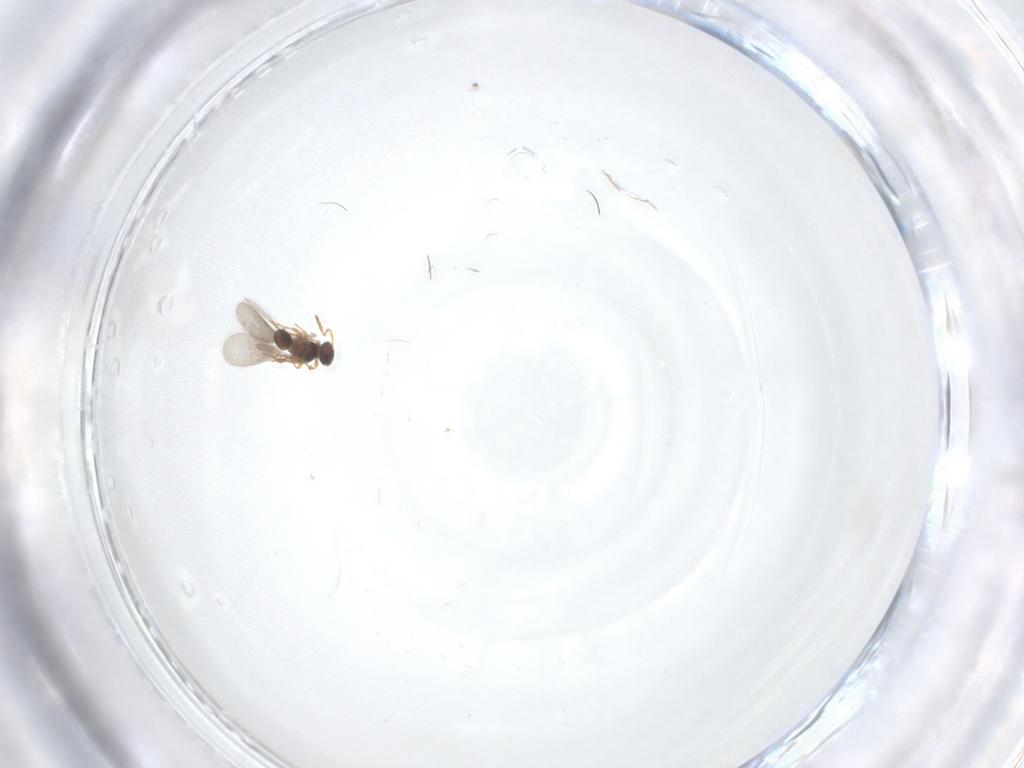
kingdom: Animalia
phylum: Arthropoda
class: Insecta
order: Hymenoptera
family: Platygastridae
